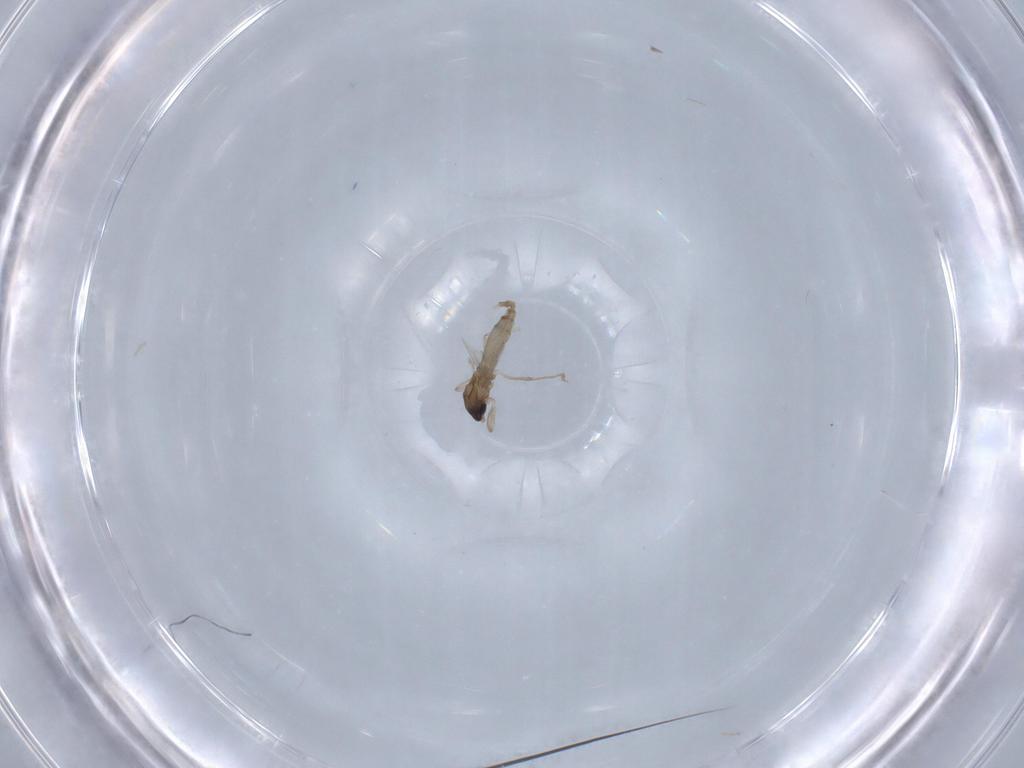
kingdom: Animalia
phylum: Arthropoda
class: Insecta
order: Diptera
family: Cecidomyiidae
